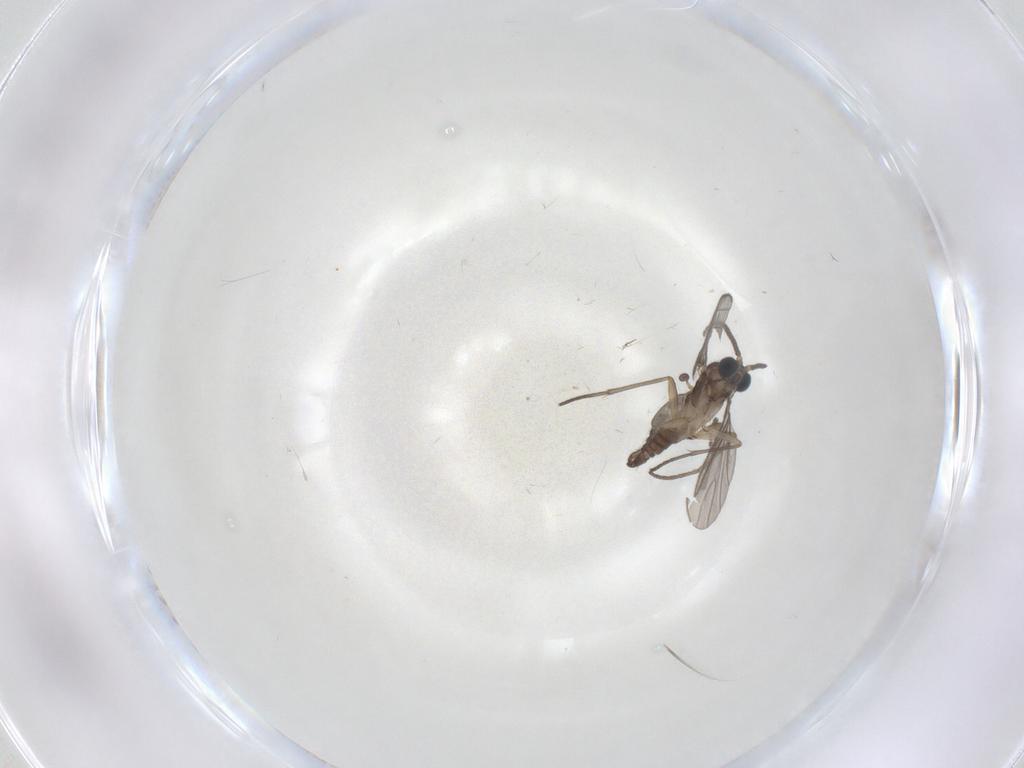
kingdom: Animalia
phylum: Arthropoda
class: Insecta
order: Diptera
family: Sciaridae
